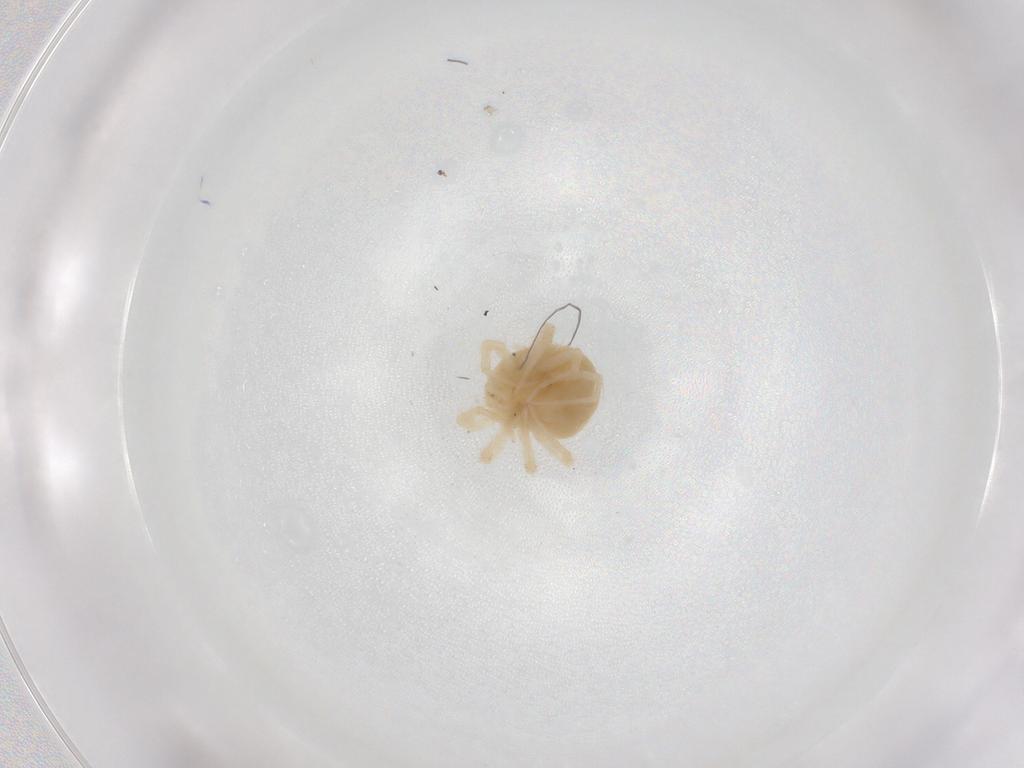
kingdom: Animalia
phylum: Arthropoda
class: Arachnida
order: Trombidiformes
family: Anystidae
